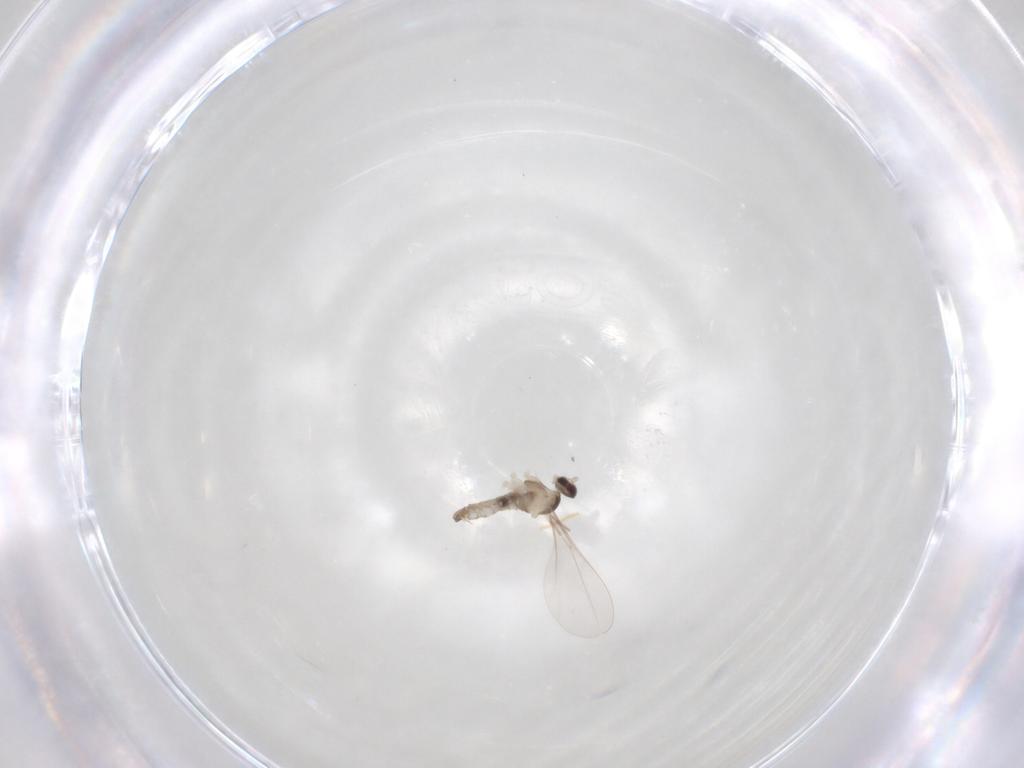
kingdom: Animalia
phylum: Arthropoda
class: Insecta
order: Diptera
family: Cecidomyiidae
